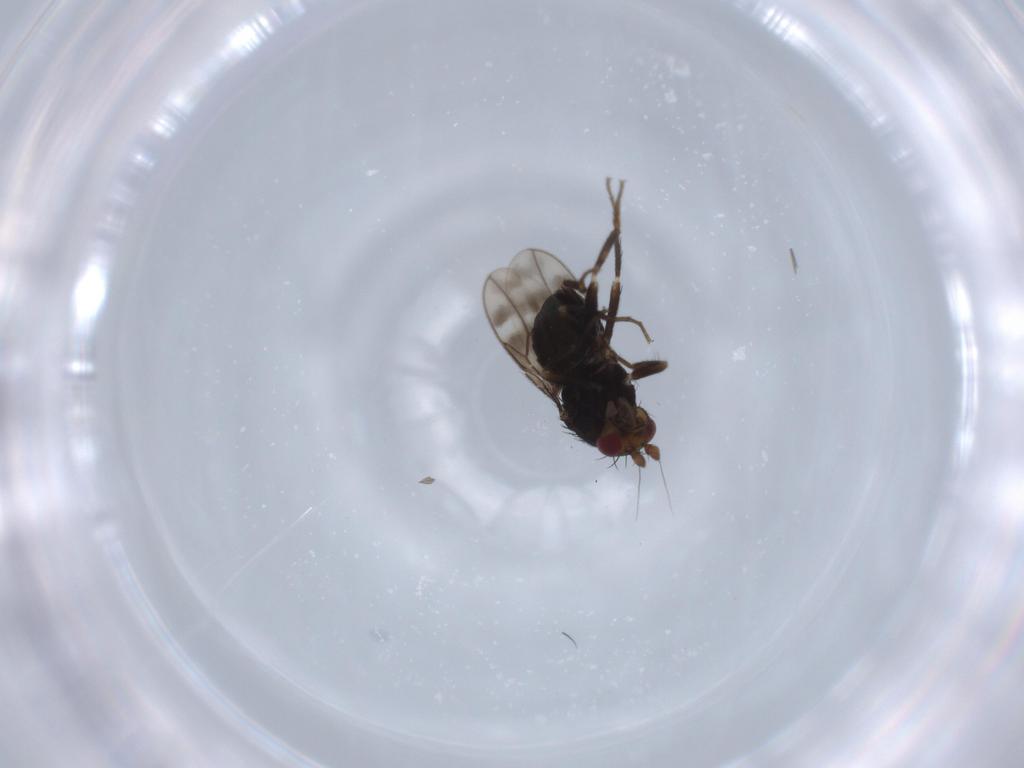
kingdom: Animalia
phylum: Arthropoda
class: Insecta
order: Diptera
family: Sphaeroceridae
